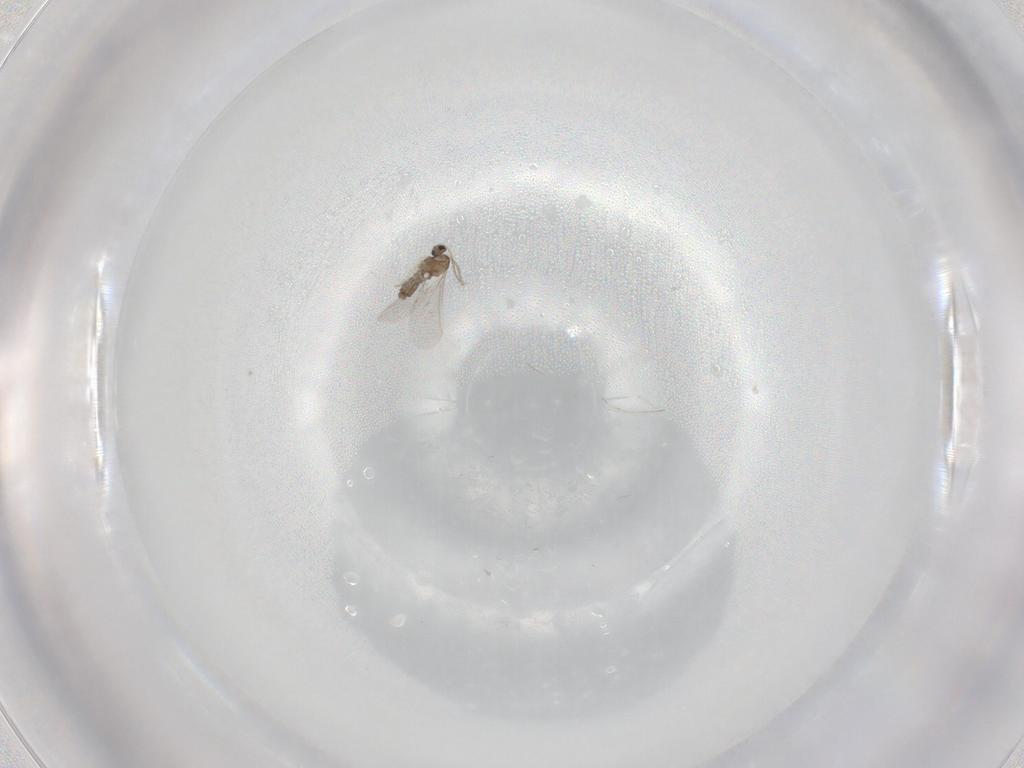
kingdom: Animalia
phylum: Arthropoda
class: Insecta
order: Diptera
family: Cecidomyiidae
